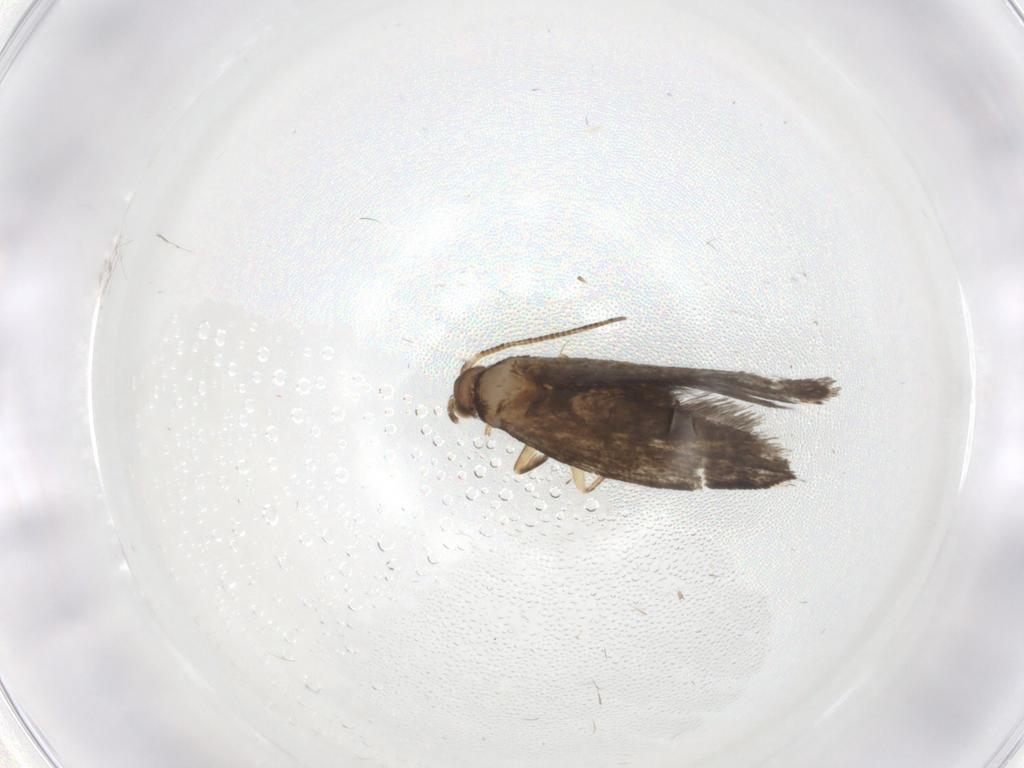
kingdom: Animalia
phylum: Arthropoda
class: Insecta
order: Lepidoptera
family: Tineidae
